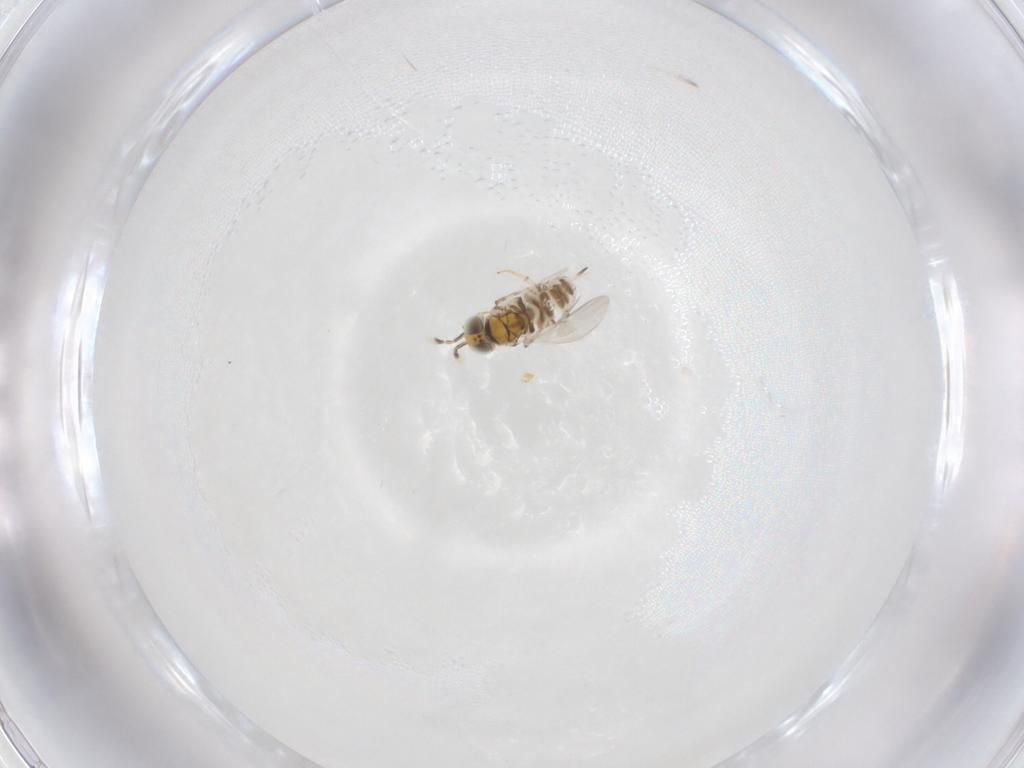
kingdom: Animalia
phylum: Arthropoda
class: Insecta
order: Hymenoptera
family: Encyrtidae
